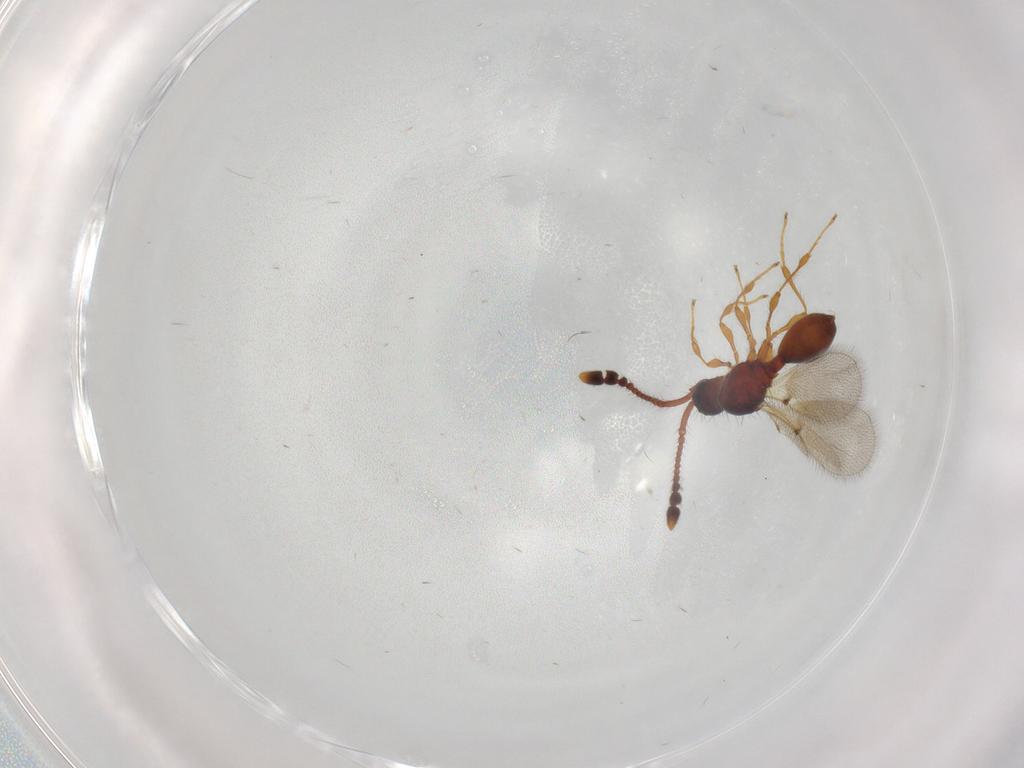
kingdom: Animalia
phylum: Arthropoda
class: Insecta
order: Hymenoptera
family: Diapriidae
